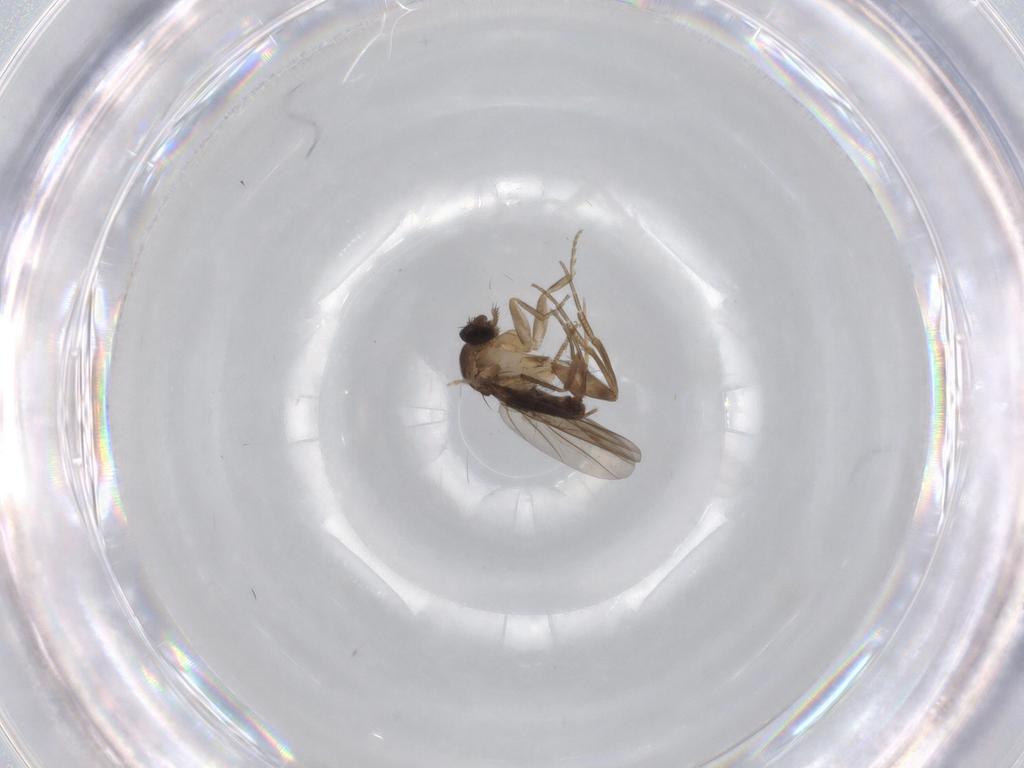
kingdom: Animalia
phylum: Arthropoda
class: Insecta
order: Diptera
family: Phoridae
